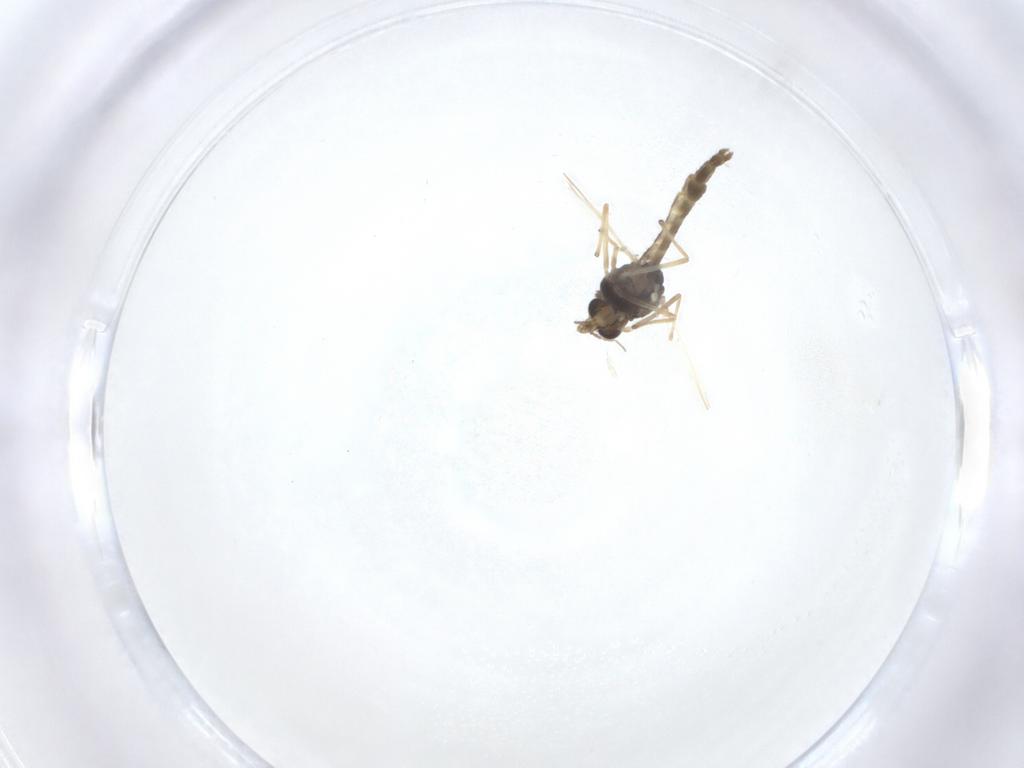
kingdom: Animalia
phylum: Arthropoda
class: Insecta
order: Diptera
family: Chironomidae
